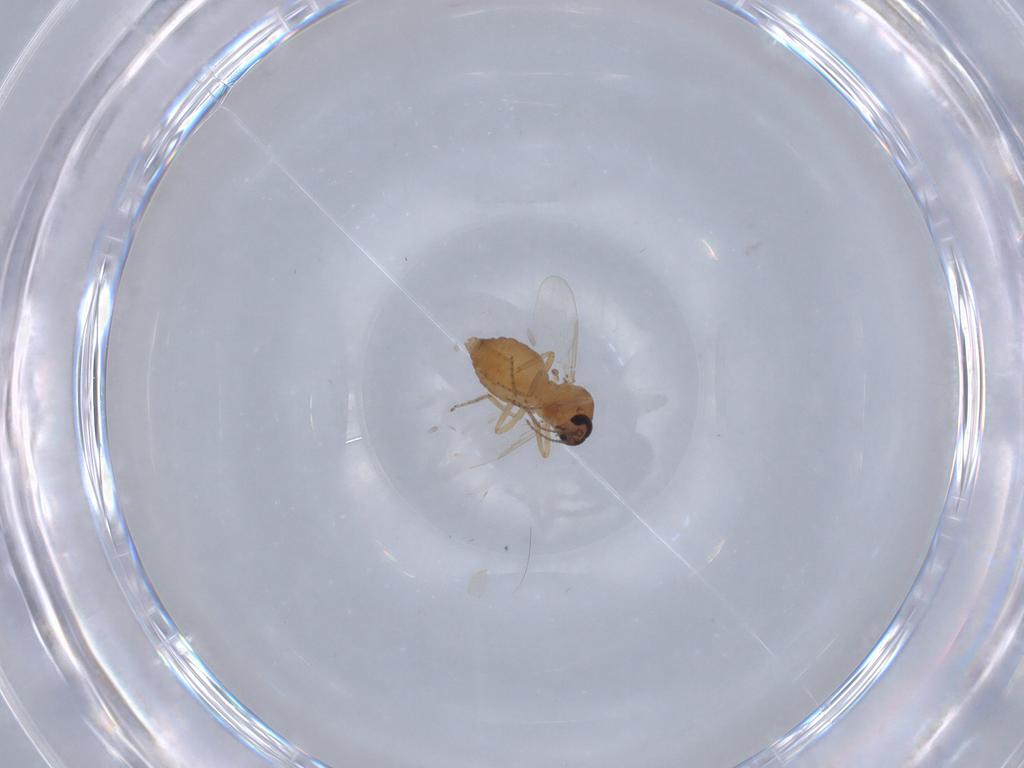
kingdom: Animalia
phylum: Arthropoda
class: Insecta
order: Diptera
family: Ceratopogonidae
